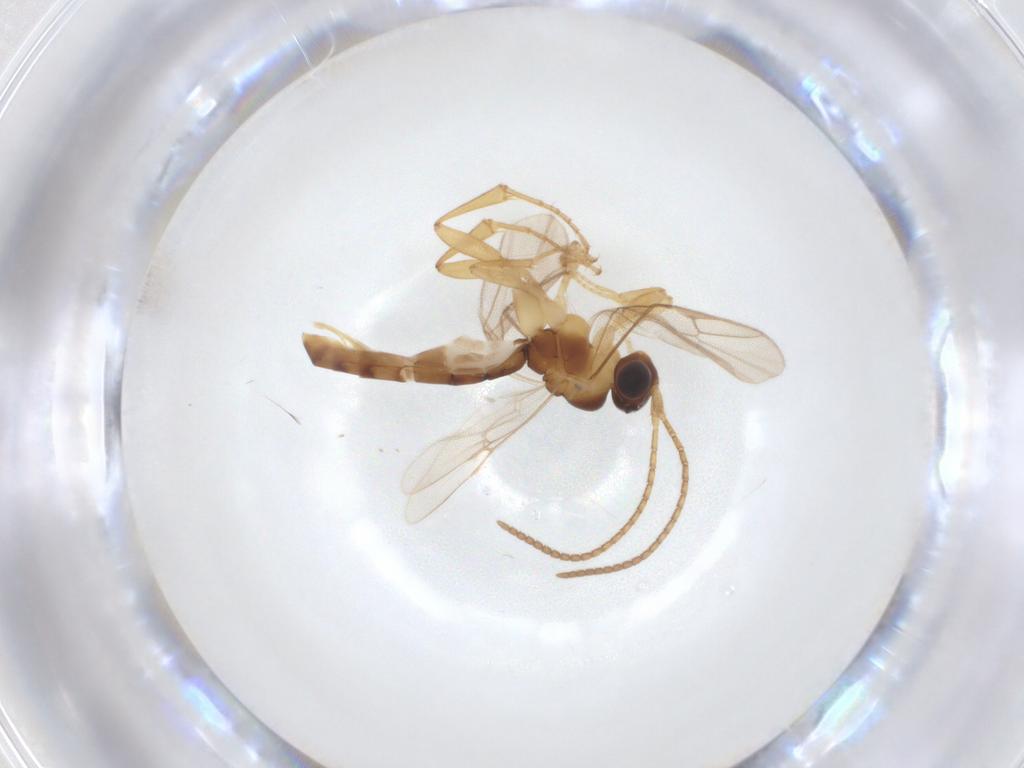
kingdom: Animalia
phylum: Arthropoda
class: Insecta
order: Hymenoptera
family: Ichneumonidae
